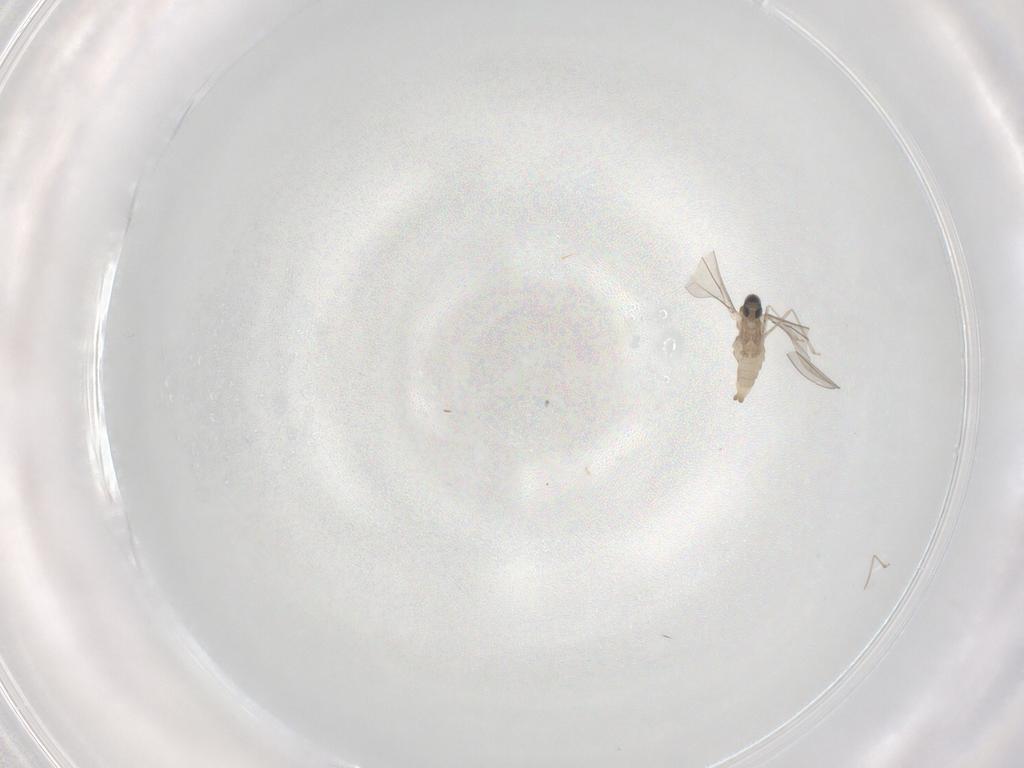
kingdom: Animalia
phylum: Arthropoda
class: Insecta
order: Diptera
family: Cecidomyiidae
